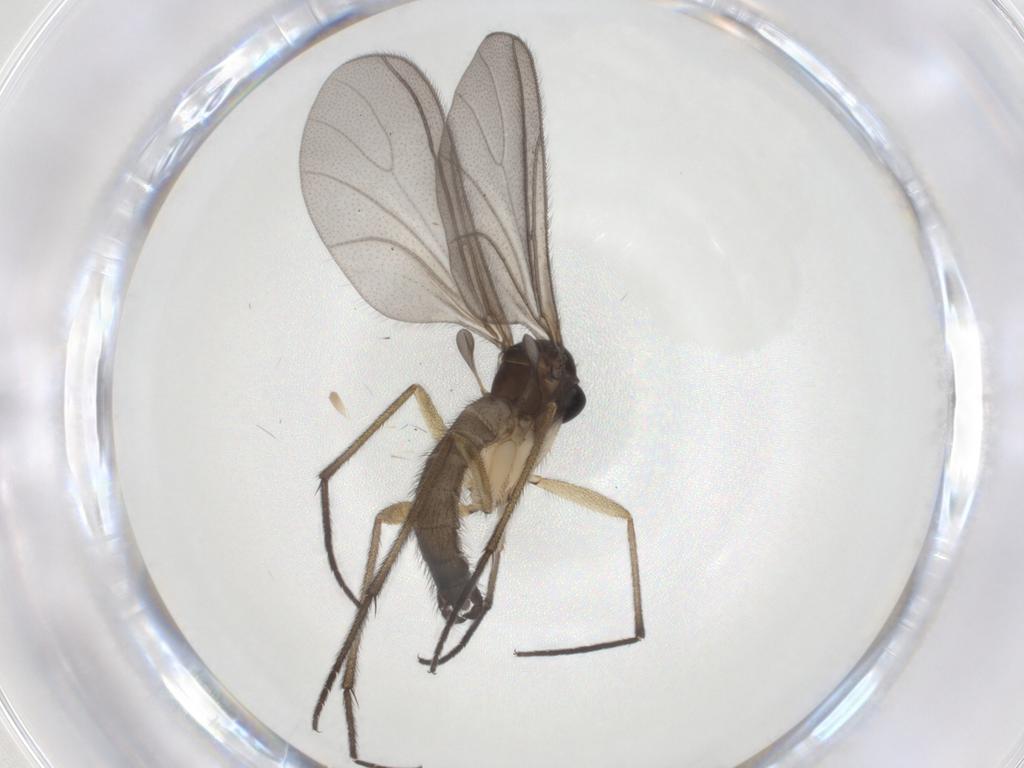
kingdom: Animalia
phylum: Arthropoda
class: Insecta
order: Diptera
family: Sciaridae
